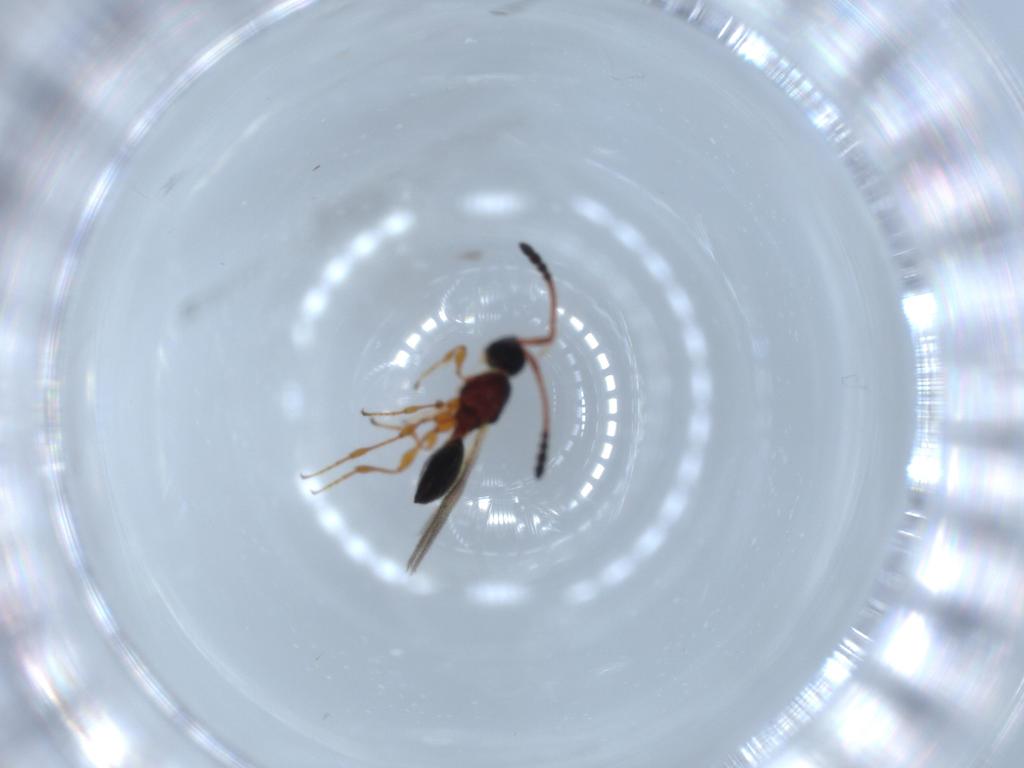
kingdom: Animalia
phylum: Arthropoda
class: Insecta
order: Hymenoptera
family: Diapriidae
